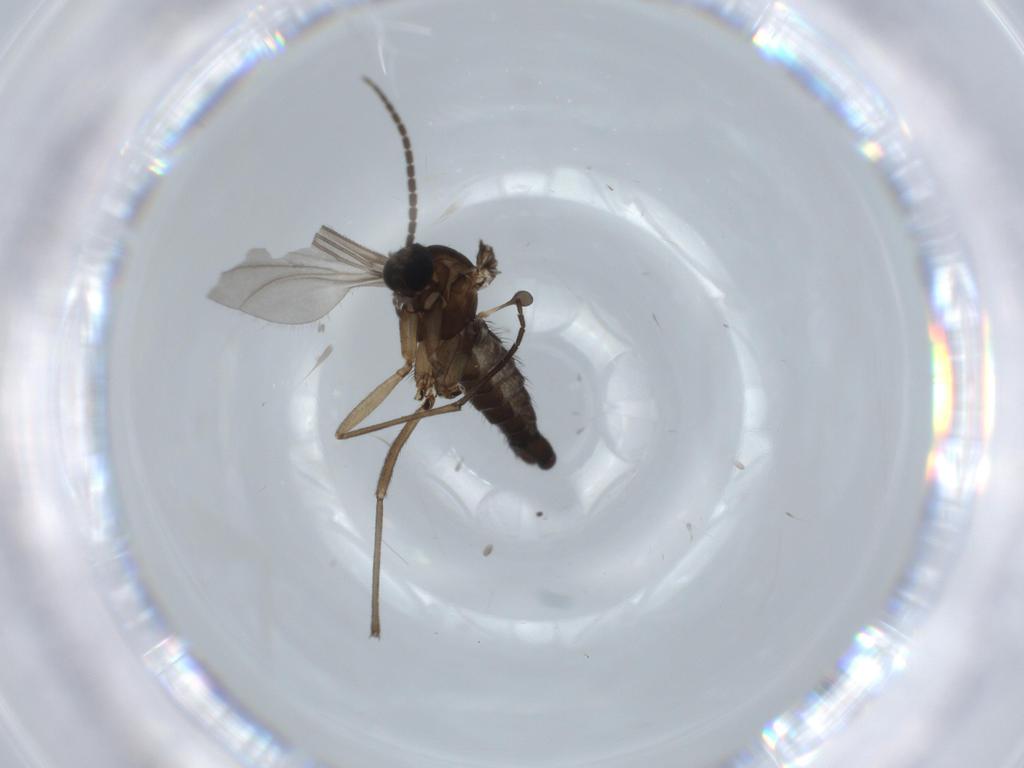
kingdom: Animalia
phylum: Arthropoda
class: Insecta
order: Diptera
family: Sciaridae
